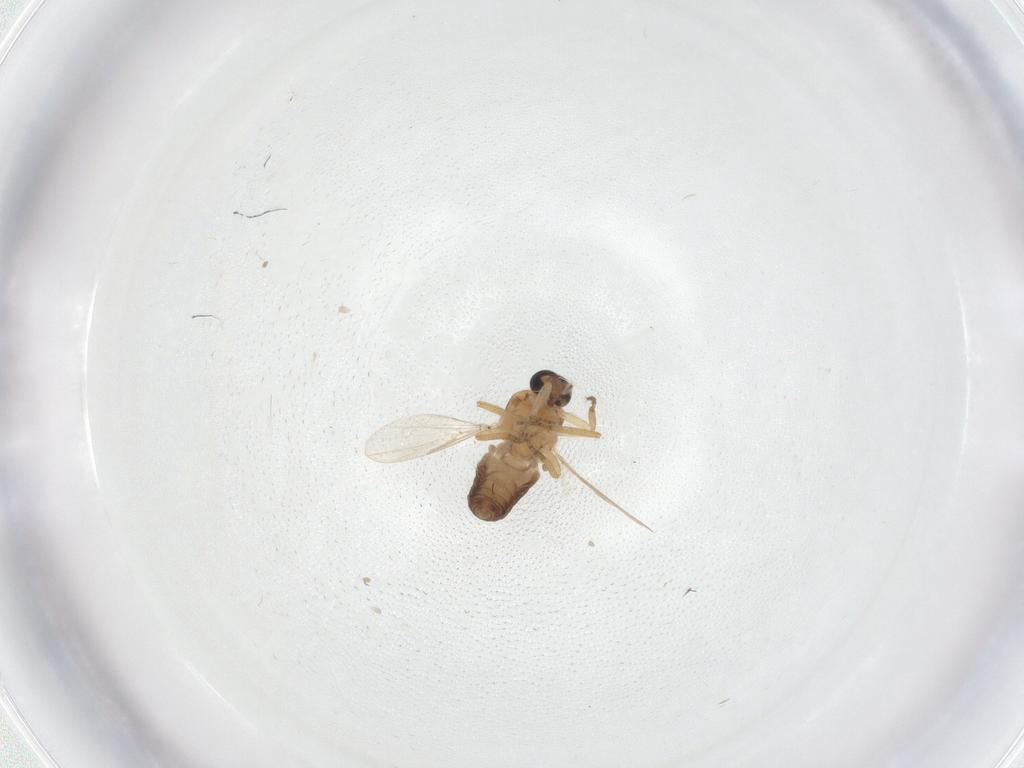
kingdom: Animalia
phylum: Arthropoda
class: Insecta
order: Diptera
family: Ceratopogonidae
